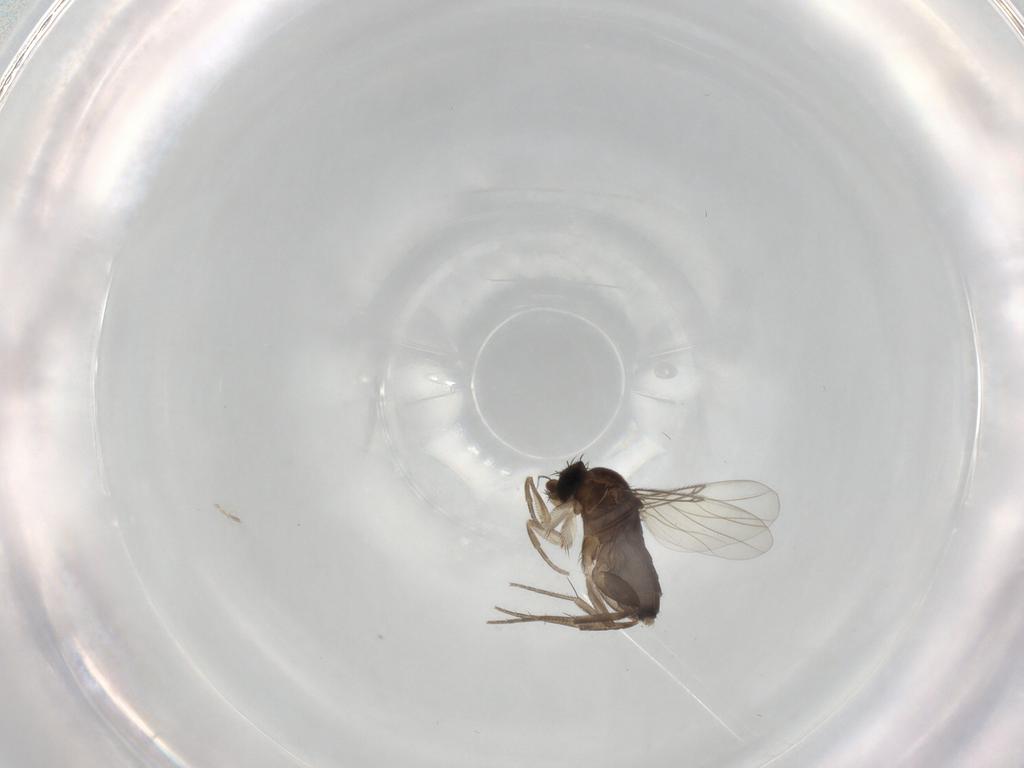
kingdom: Animalia
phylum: Arthropoda
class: Insecta
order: Diptera
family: Phoridae
